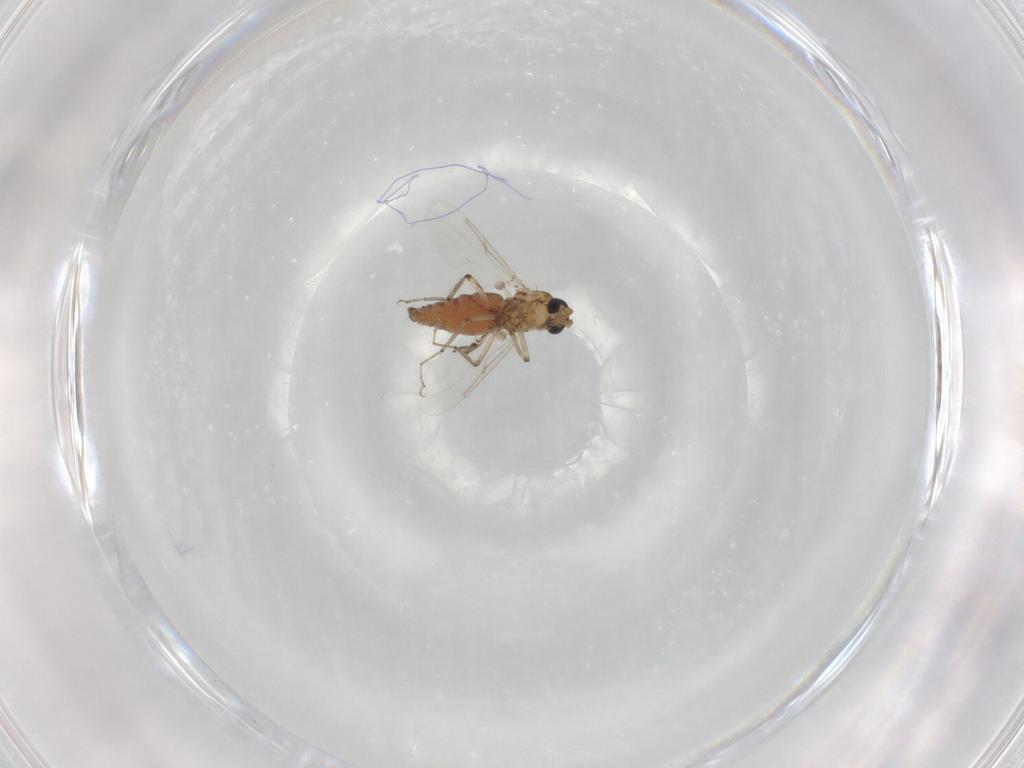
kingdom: Animalia
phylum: Arthropoda
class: Insecta
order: Diptera
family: Ceratopogonidae
